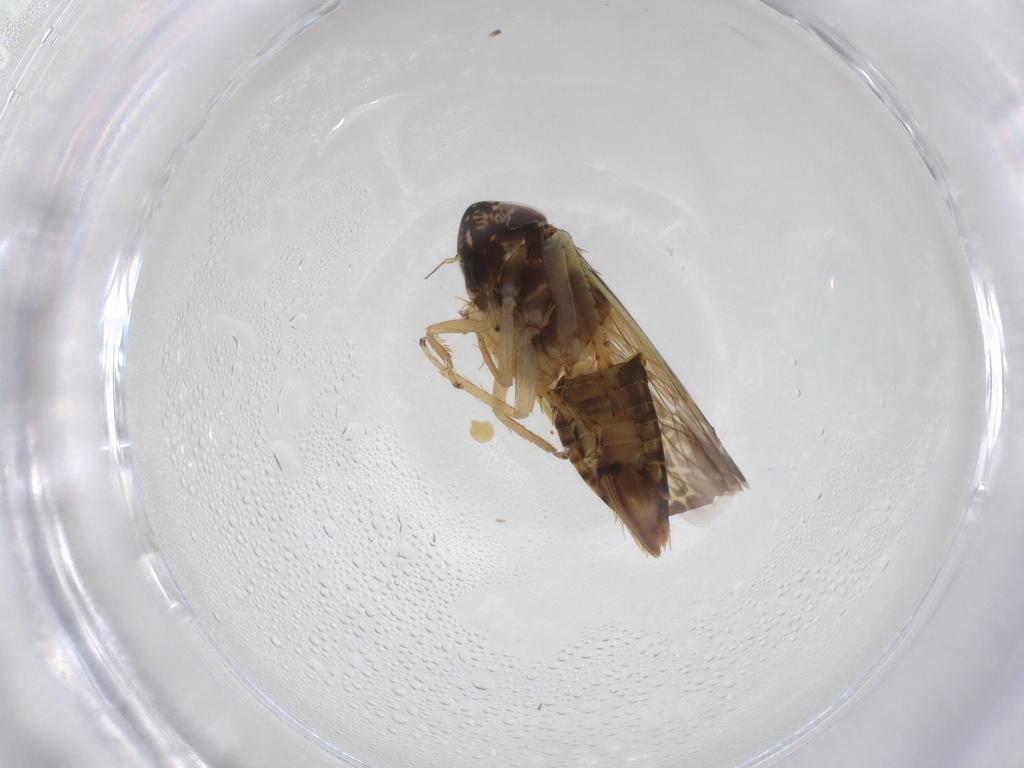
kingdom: Animalia
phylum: Arthropoda
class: Insecta
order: Hemiptera
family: Cicadellidae
